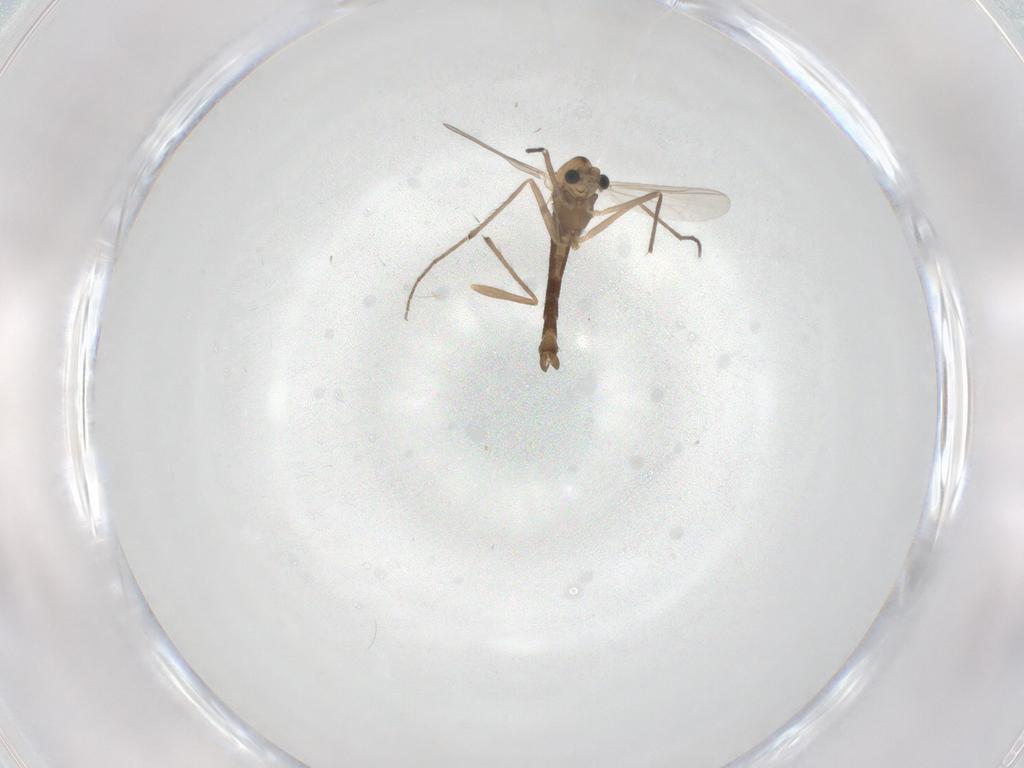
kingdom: Animalia
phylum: Arthropoda
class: Insecta
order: Diptera
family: Chironomidae
